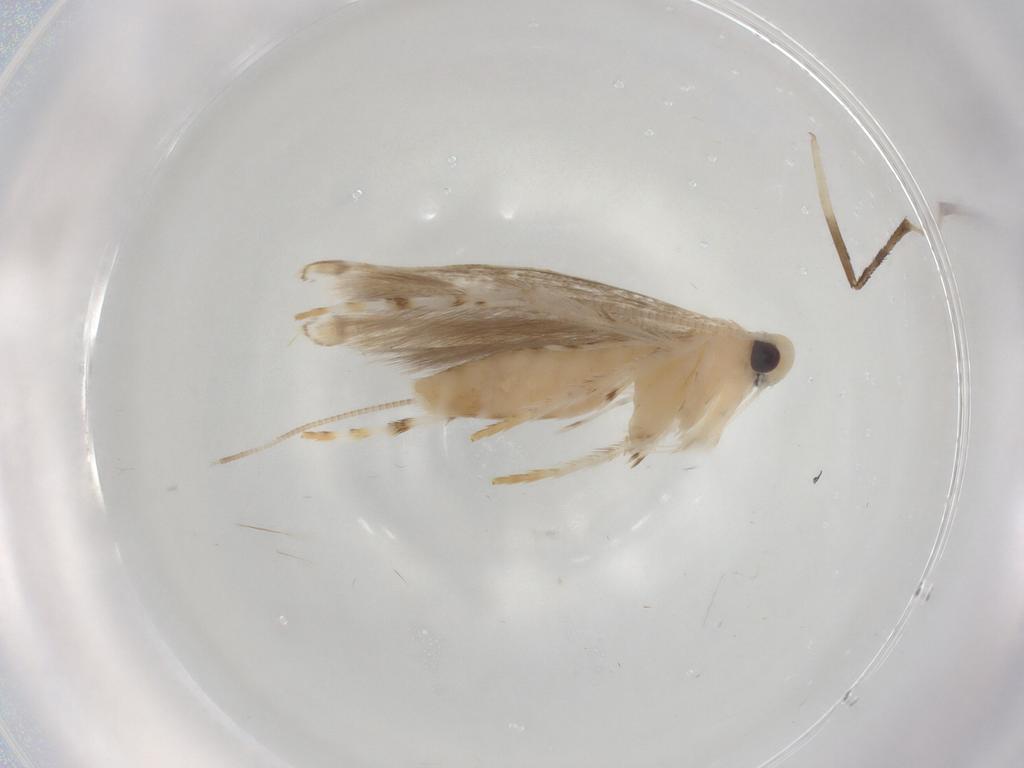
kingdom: Animalia
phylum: Arthropoda
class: Insecta
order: Lepidoptera
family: Gracillariidae
